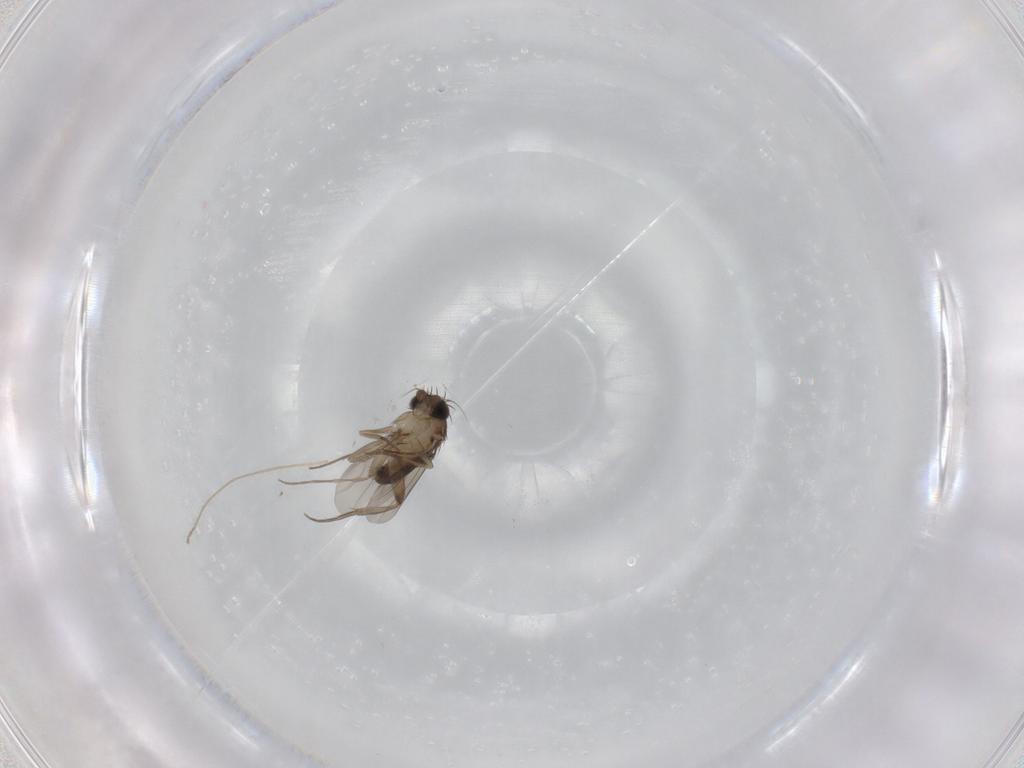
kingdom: Animalia
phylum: Arthropoda
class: Insecta
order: Diptera
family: Phoridae
